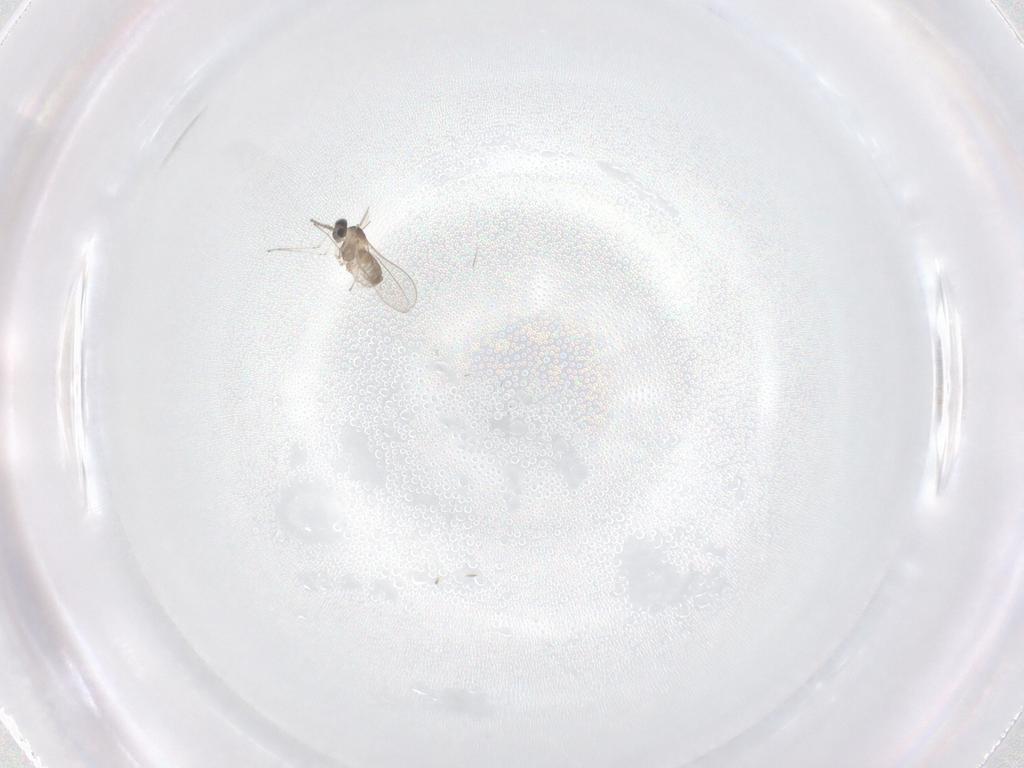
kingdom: Animalia
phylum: Arthropoda
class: Insecta
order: Diptera
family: Cecidomyiidae
